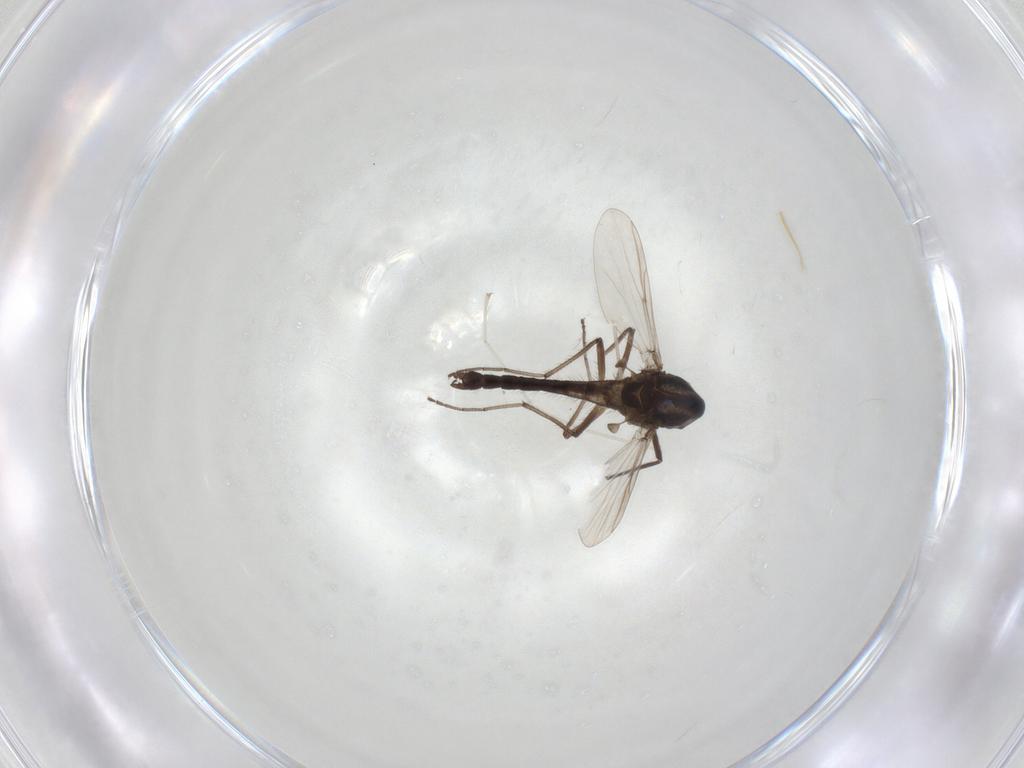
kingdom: Animalia
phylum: Arthropoda
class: Insecta
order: Diptera
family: Chironomidae
